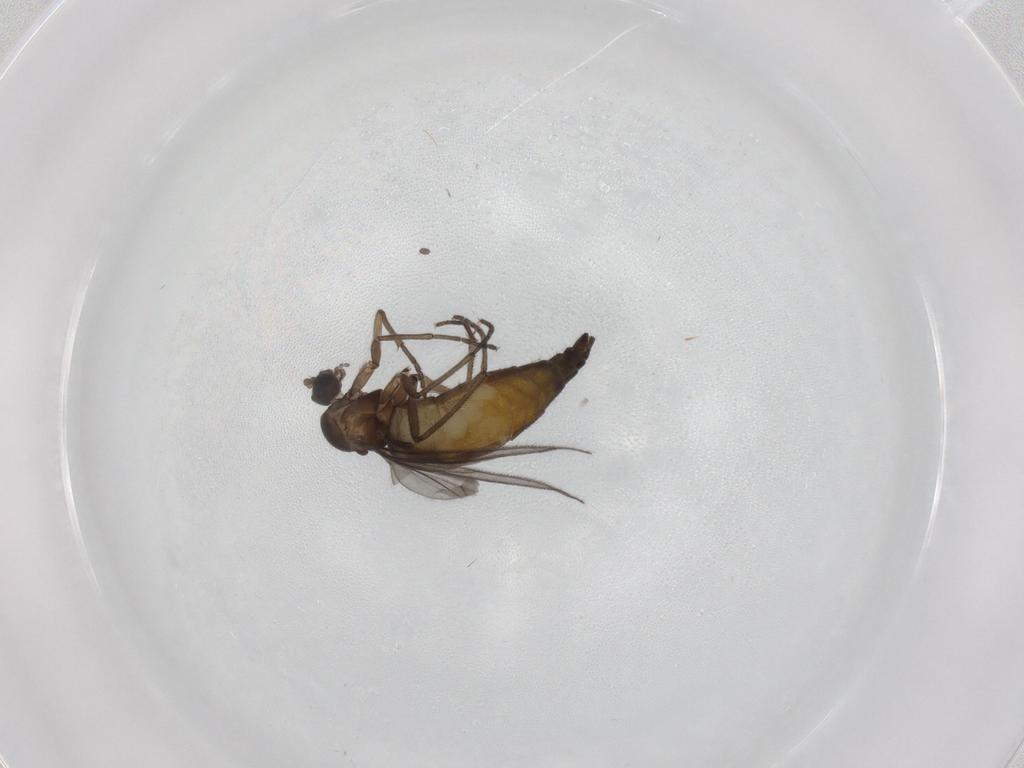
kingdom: Animalia
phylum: Arthropoda
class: Insecta
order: Diptera
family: Sciaridae
